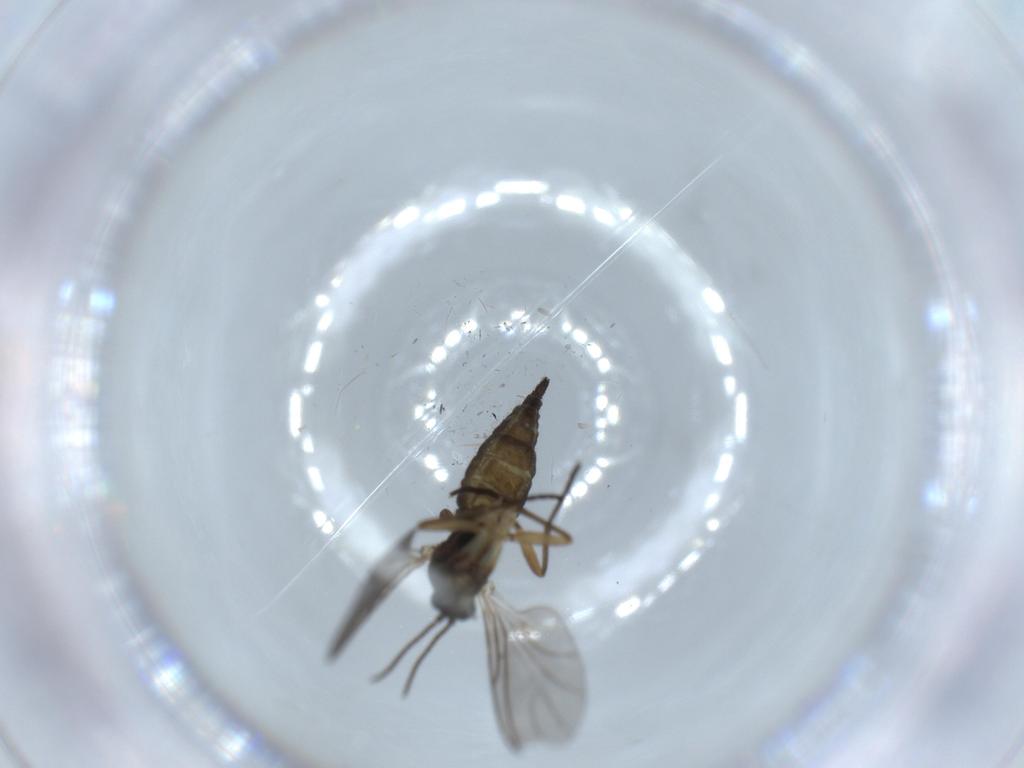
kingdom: Animalia
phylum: Arthropoda
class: Insecta
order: Diptera
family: Sciaridae
